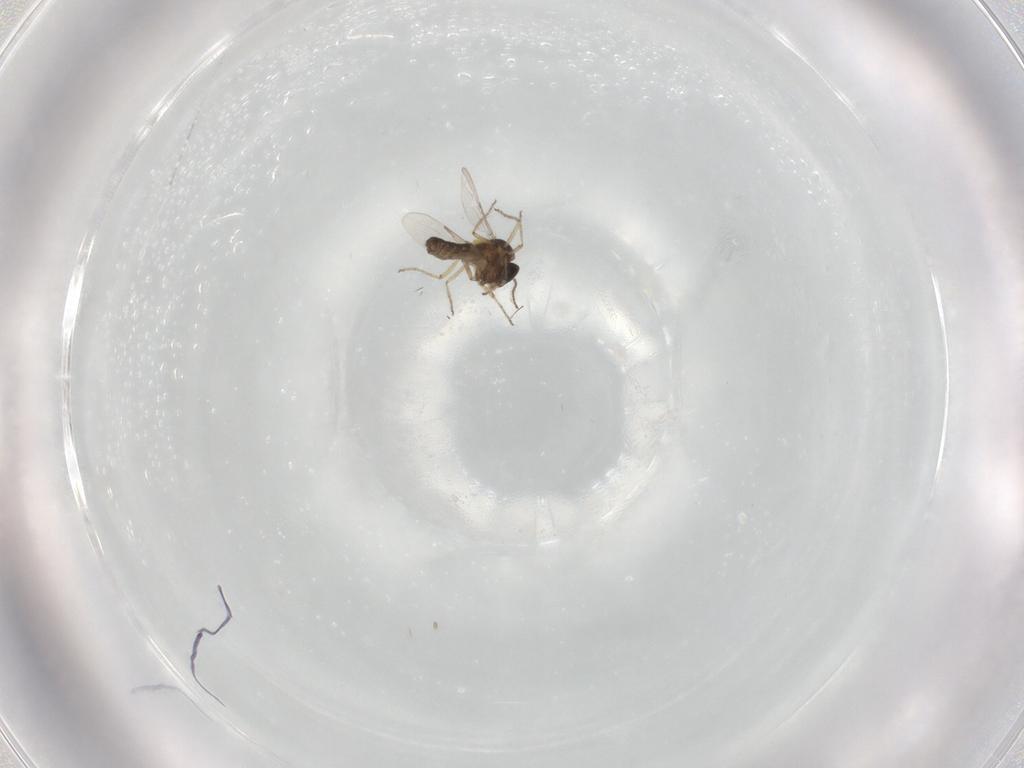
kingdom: Animalia
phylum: Arthropoda
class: Insecta
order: Diptera
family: Ceratopogonidae
